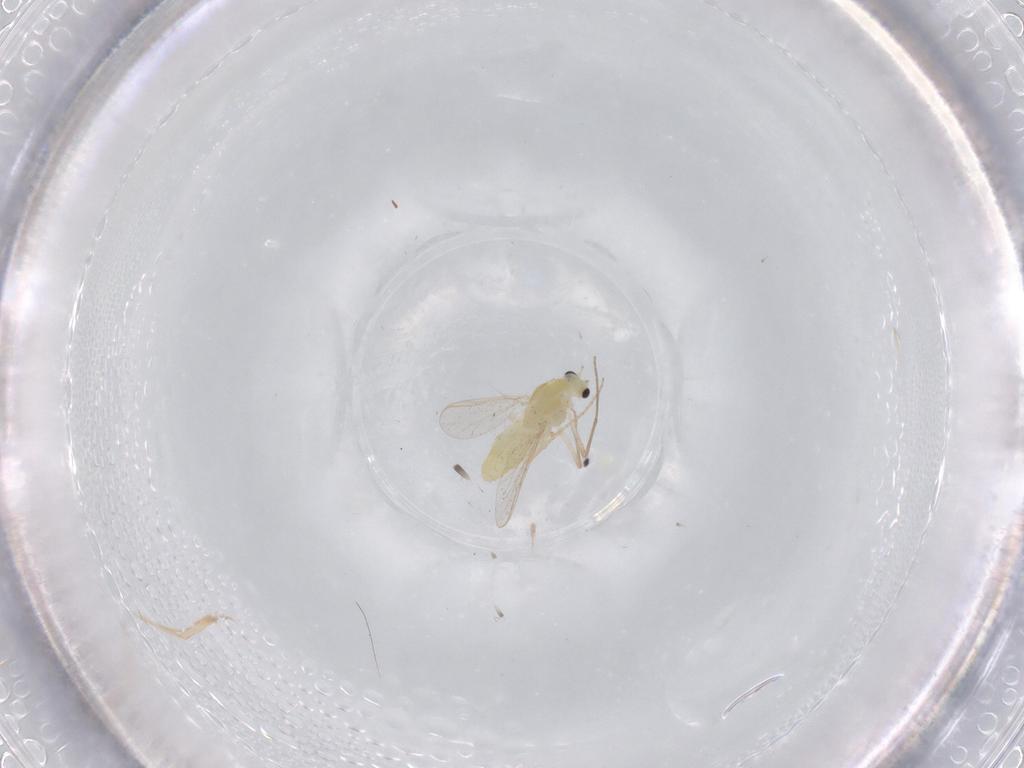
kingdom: Animalia
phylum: Arthropoda
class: Insecta
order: Diptera
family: Chironomidae
